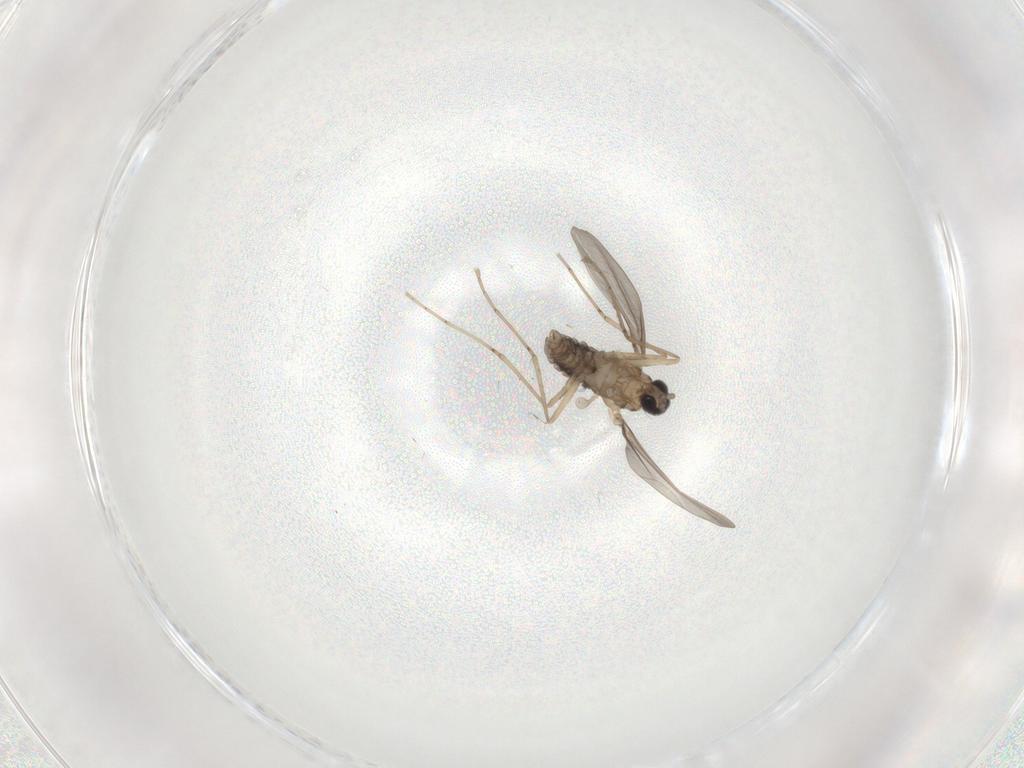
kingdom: Animalia
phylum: Arthropoda
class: Insecta
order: Diptera
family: Cecidomyiidae
